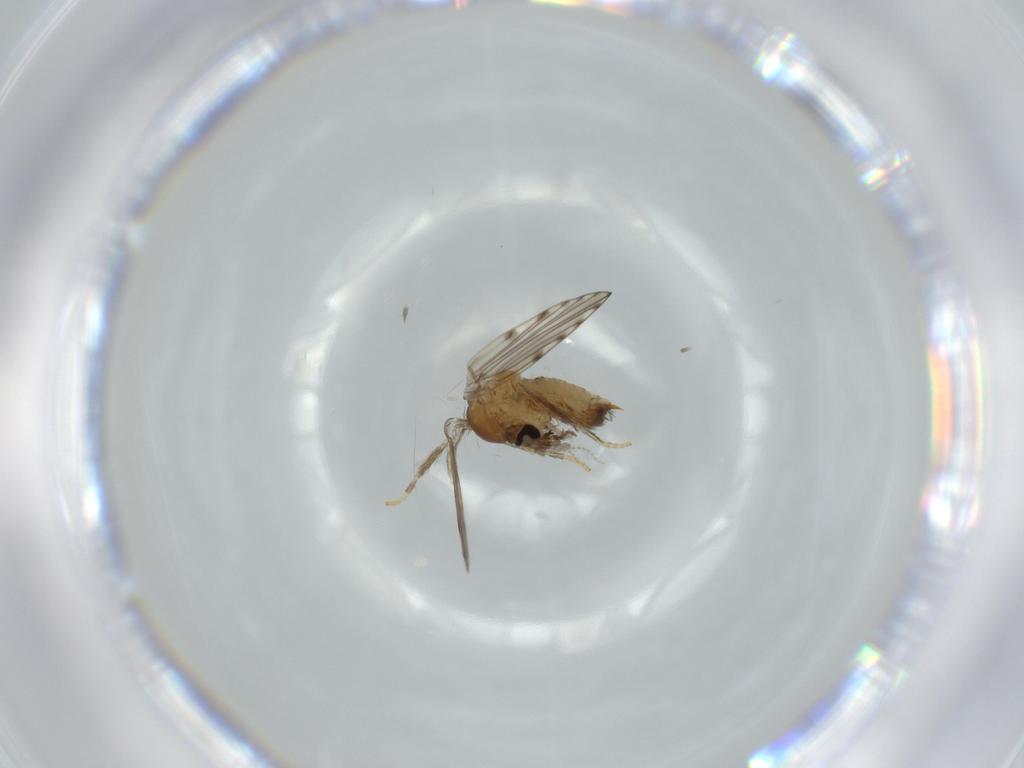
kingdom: Animalia
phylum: Arthropoda
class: Insecta
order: Diptera
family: Psychodidae
